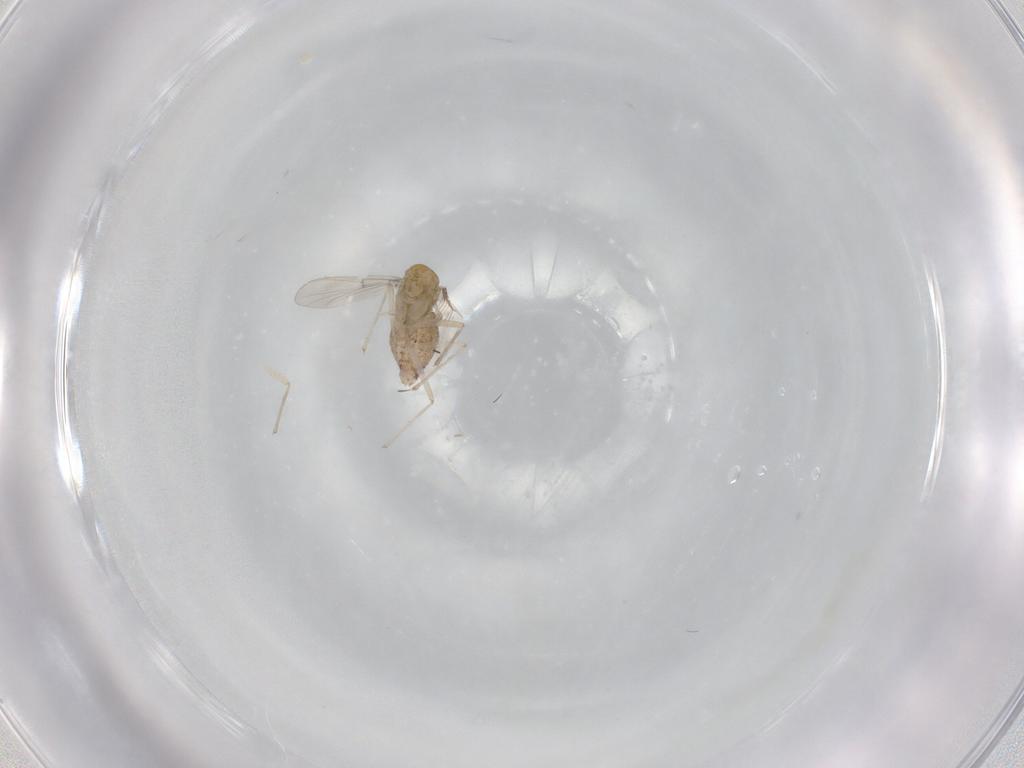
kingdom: Animalia
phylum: Arthropoda
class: Insecta
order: Diptera
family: Chironomidae
